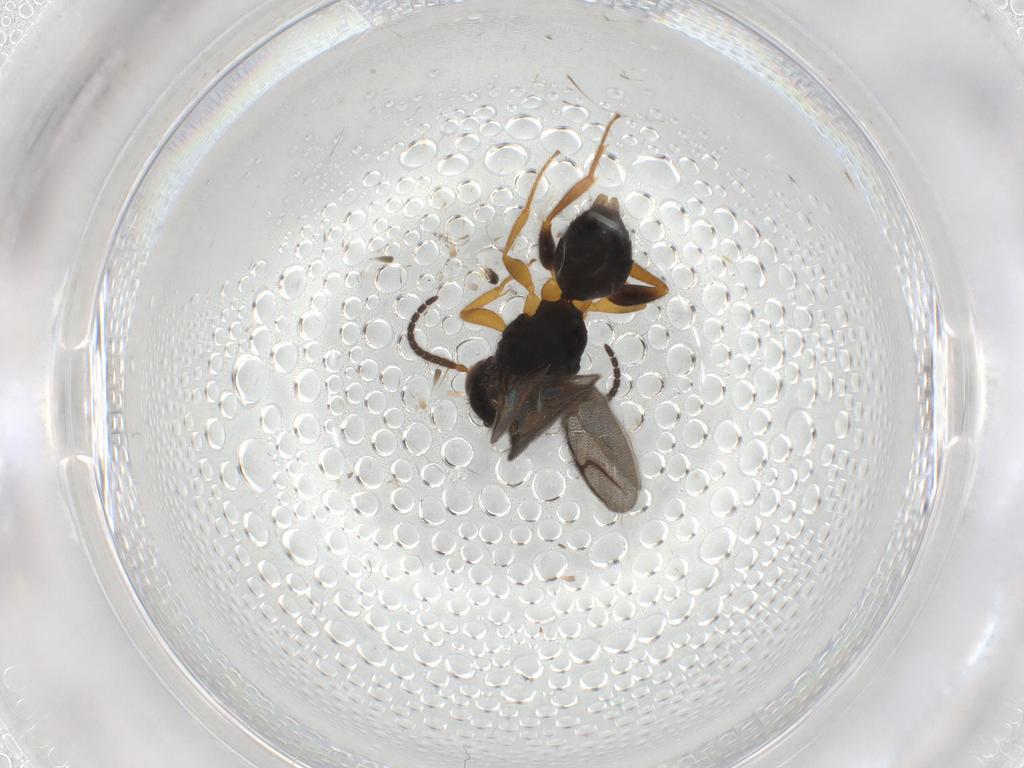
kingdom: Animalia
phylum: Arthropoda
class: Insecta
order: Hymenoptera
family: Bethylidae
